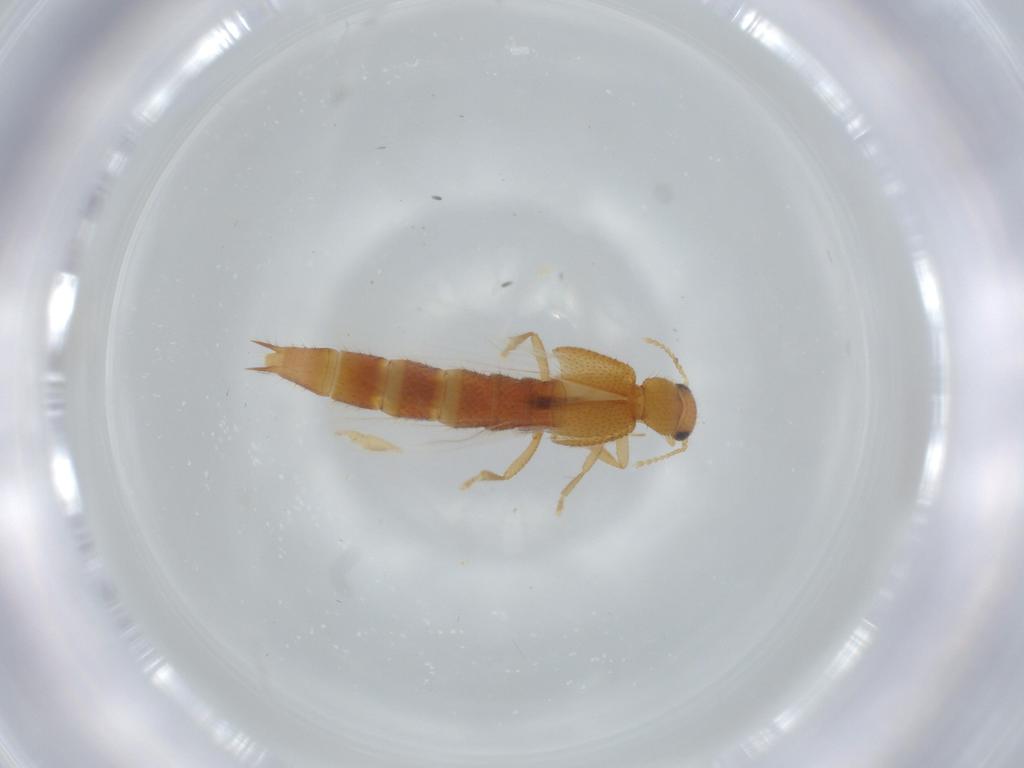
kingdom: Animalia
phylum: Arthropoda
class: Insecta
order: Coleoptera
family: Staphylinidae
